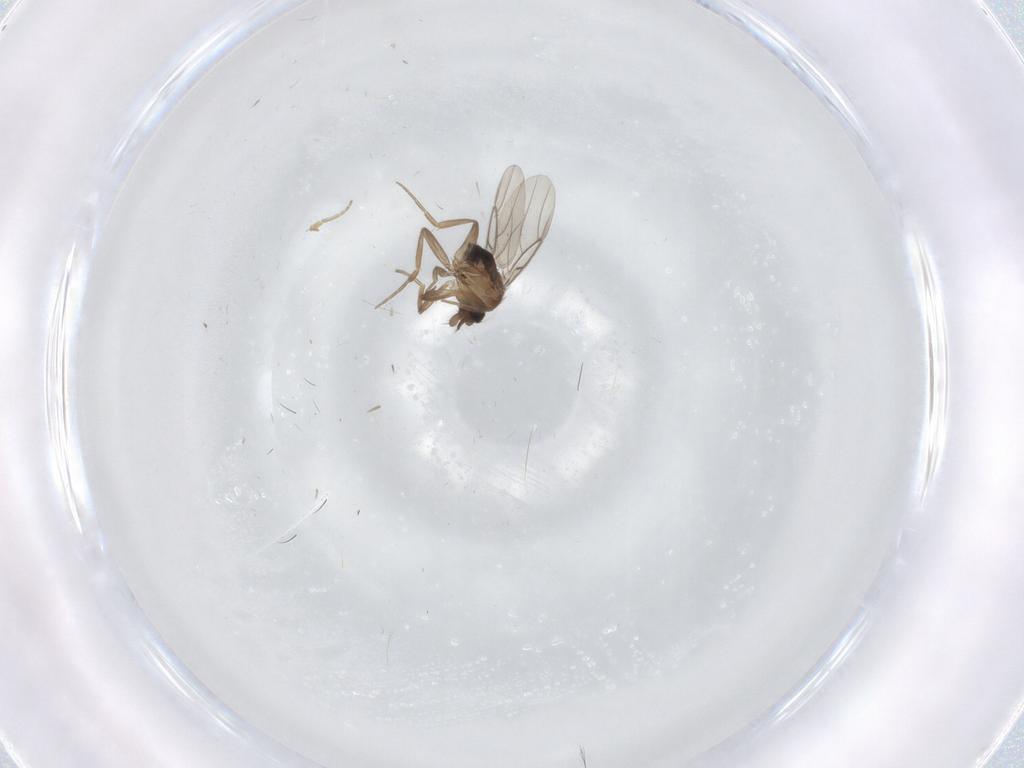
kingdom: Animalia
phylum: Arthropoda
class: Insecta
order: Diptera
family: Phoridae
